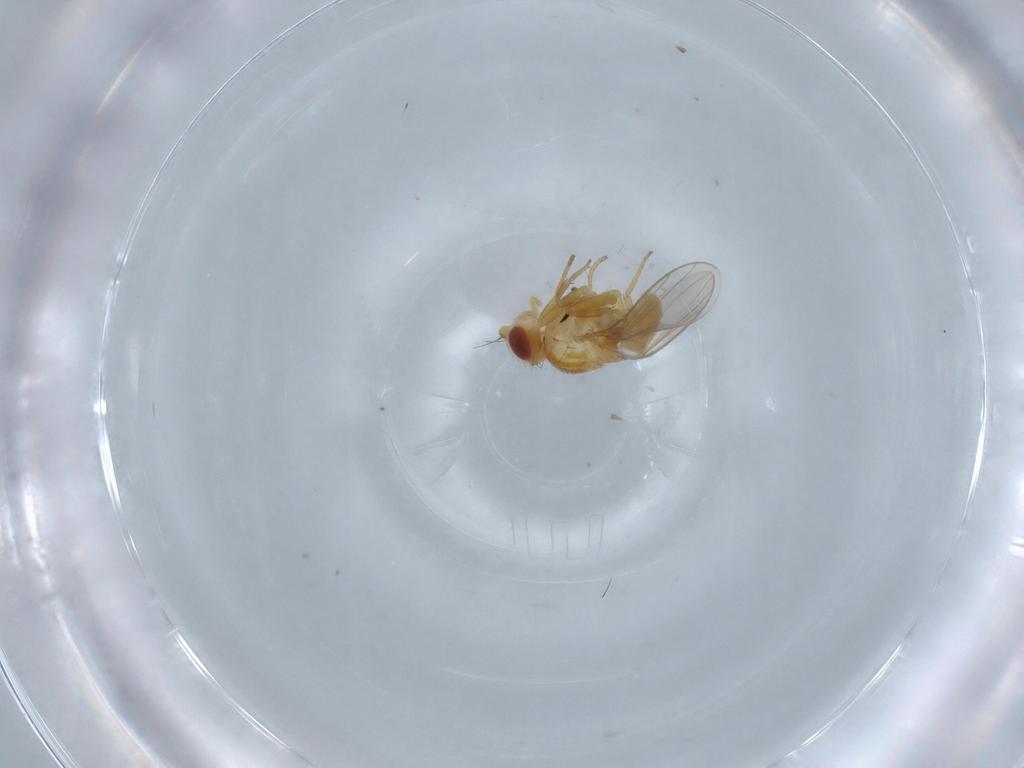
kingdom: Animalia
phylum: Arthropoda
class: Insecta
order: Diptera
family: Chloropidae
